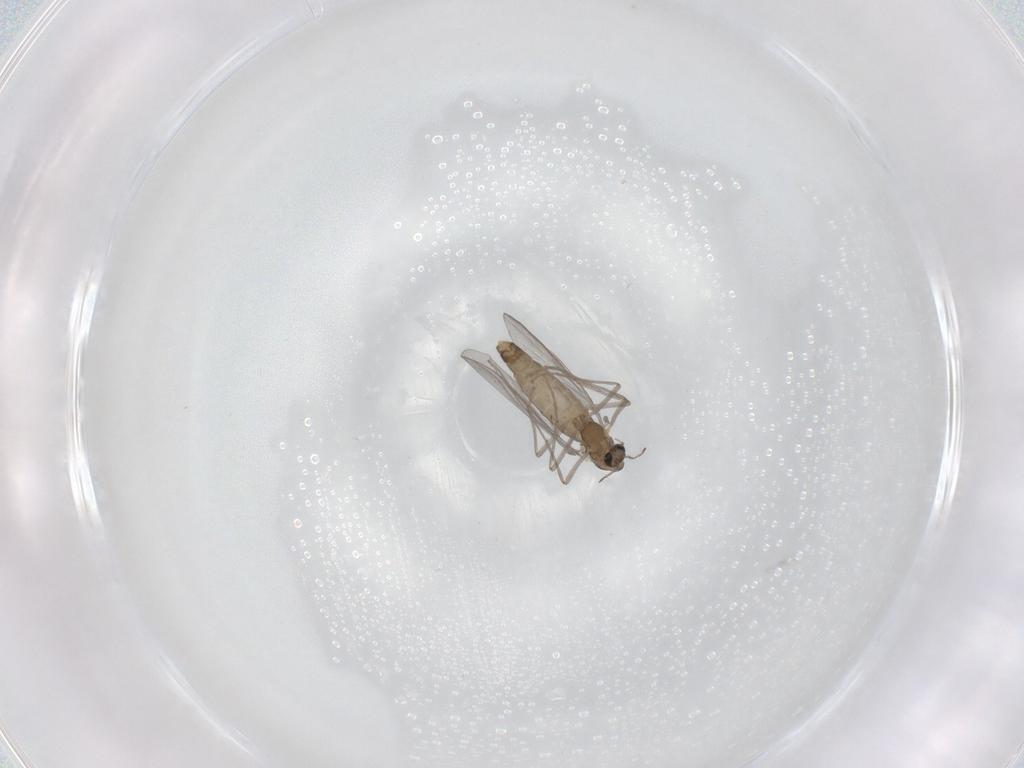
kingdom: Animalia
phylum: Arthropoda
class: Insecta
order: Diptera
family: Chironomidae
